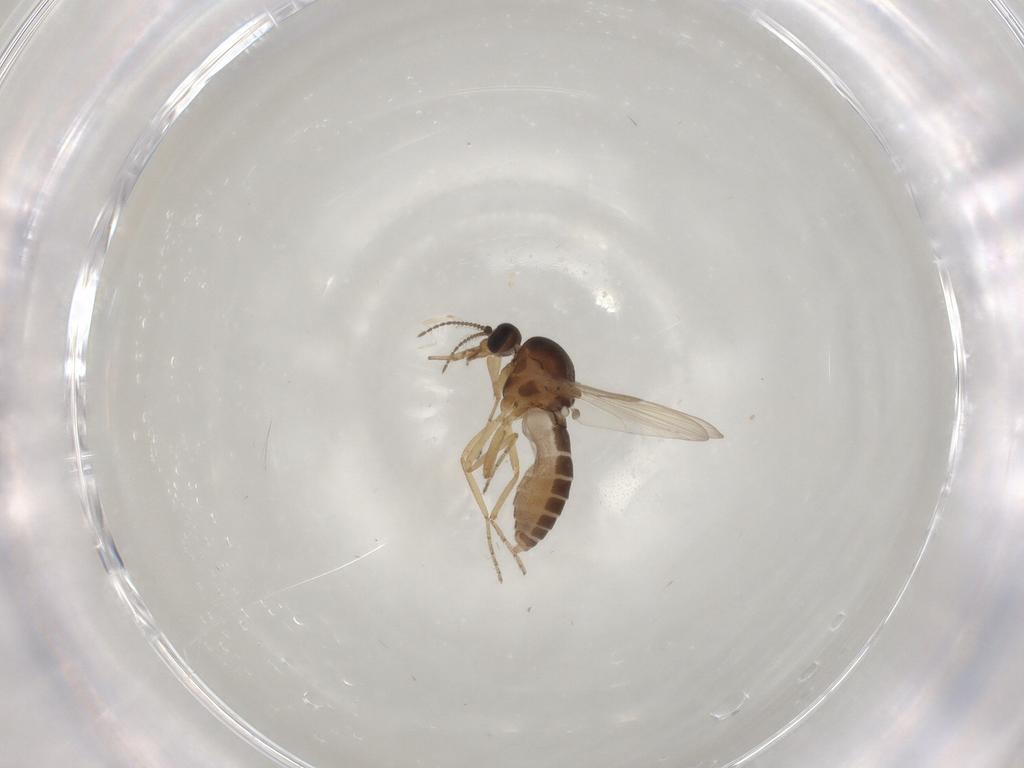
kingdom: Animalia
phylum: Arthropoda
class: Insecta
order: Diptera
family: Ceratopogonidae
